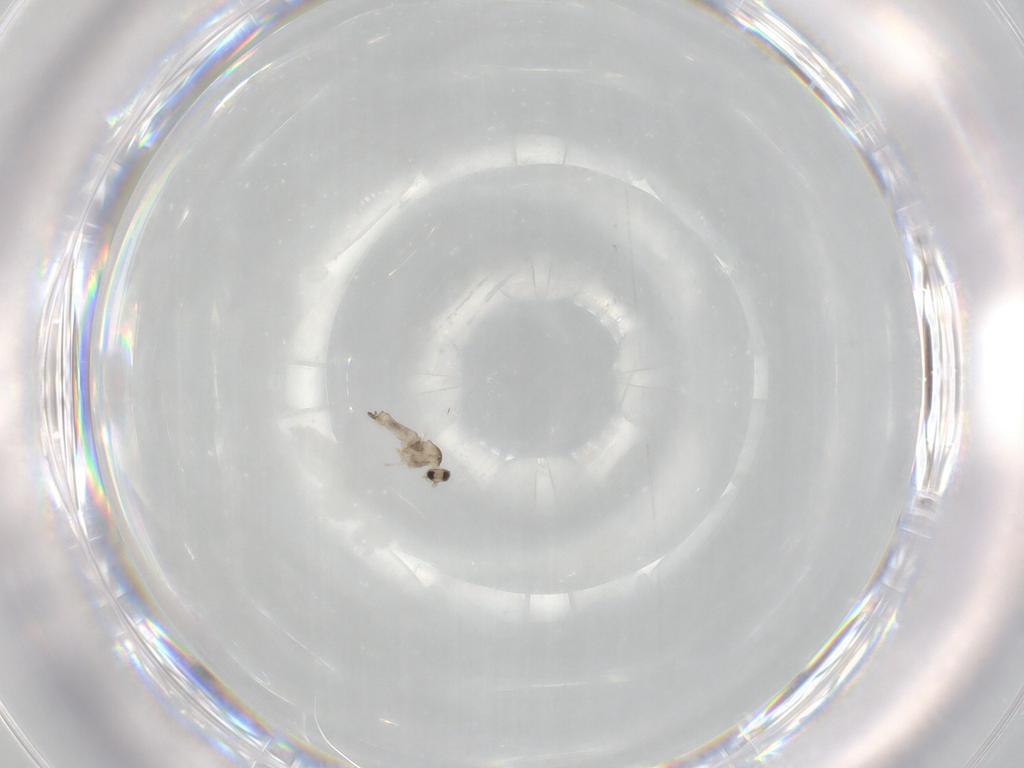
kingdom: Animalia
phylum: Arthropoda
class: Insecta
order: Diptera
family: Cecidomyiidae
